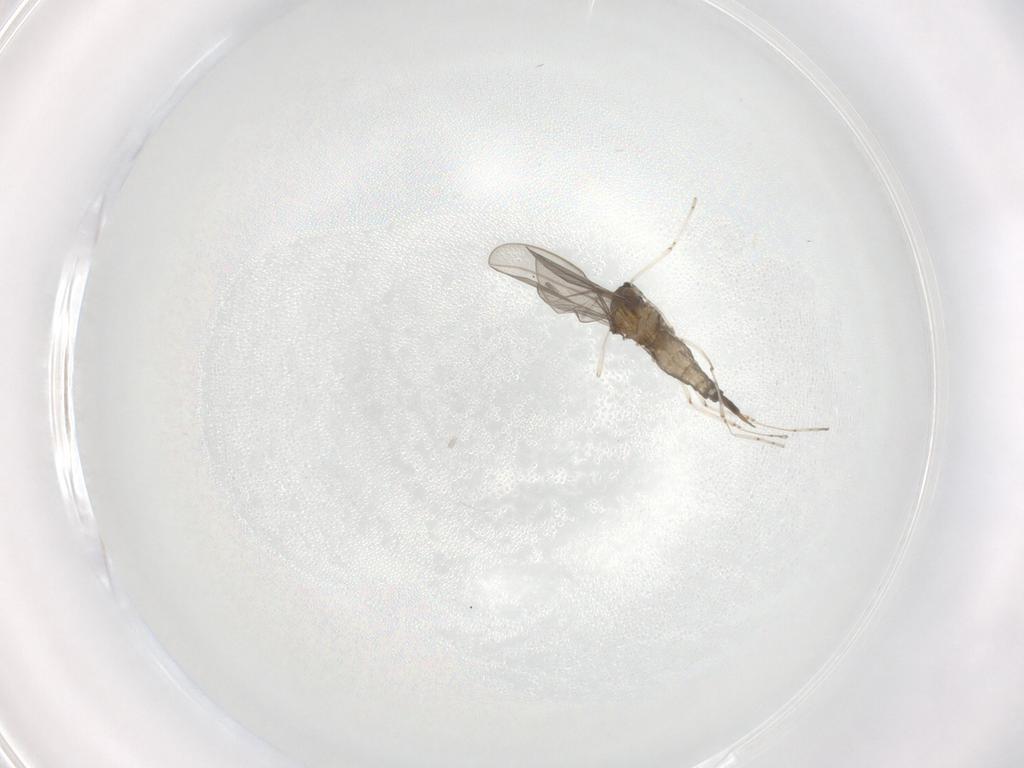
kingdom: Animalia
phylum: Arthropoda
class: Insecta
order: Diptera
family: Cecidomyiidae
